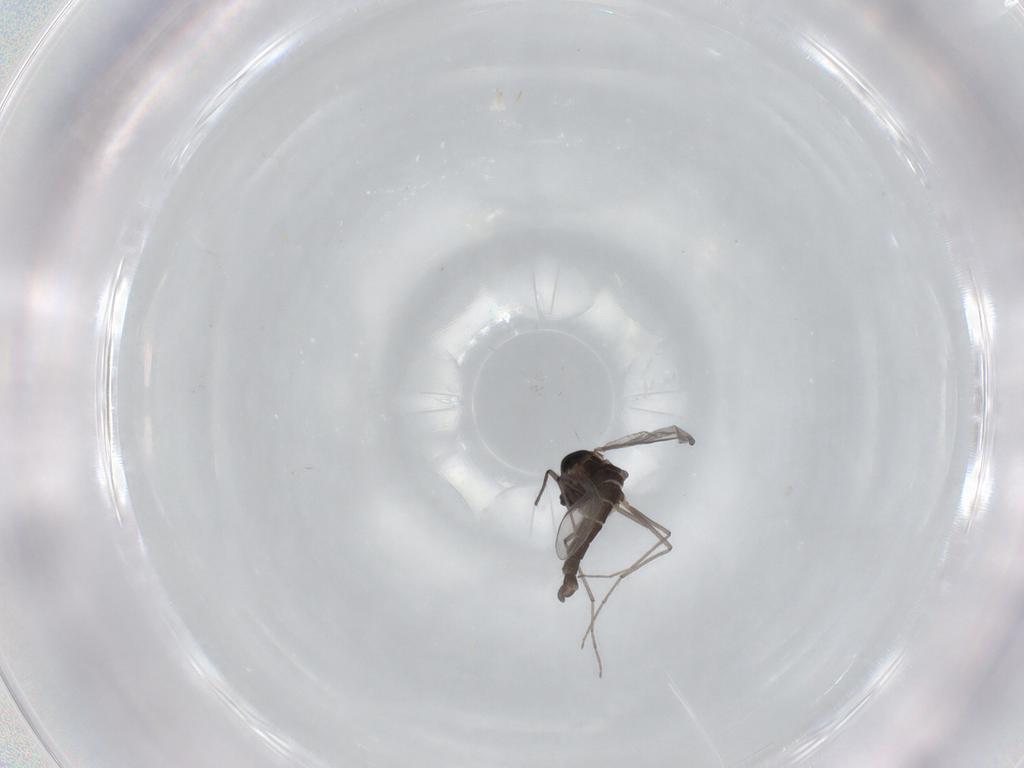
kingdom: Animalia
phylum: Arthropoda
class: Insecta
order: Diptera
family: Chironomidae
